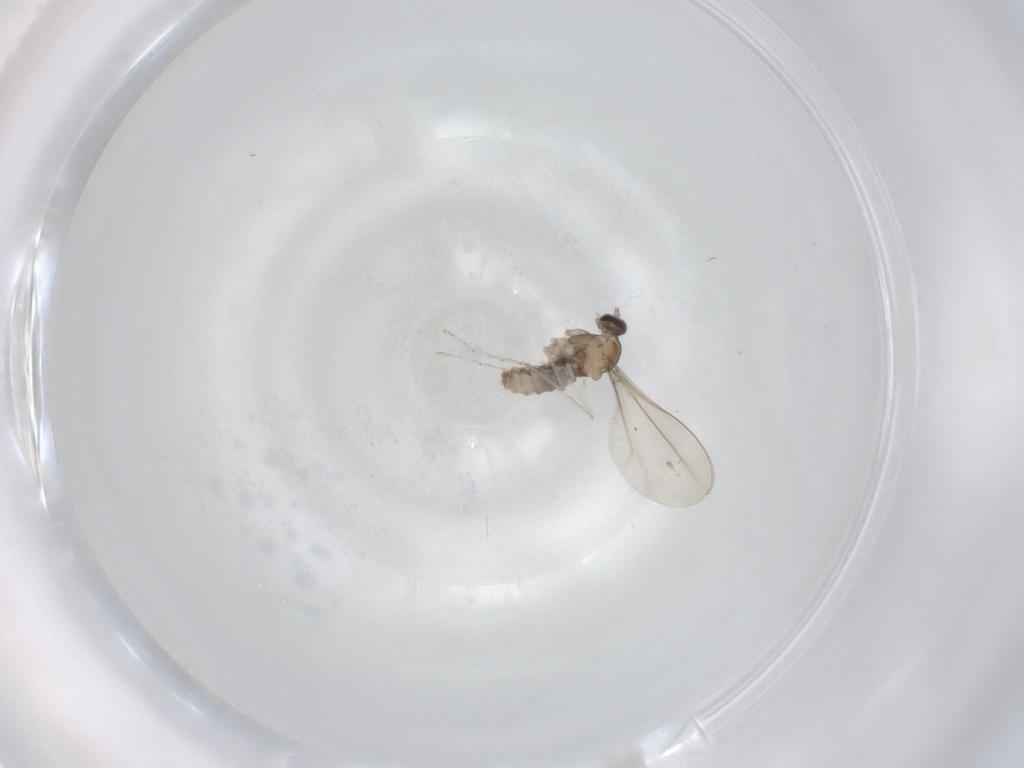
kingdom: Animalia
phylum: Arthropoda
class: Insecta
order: Diptera
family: Cecidomyiidae
